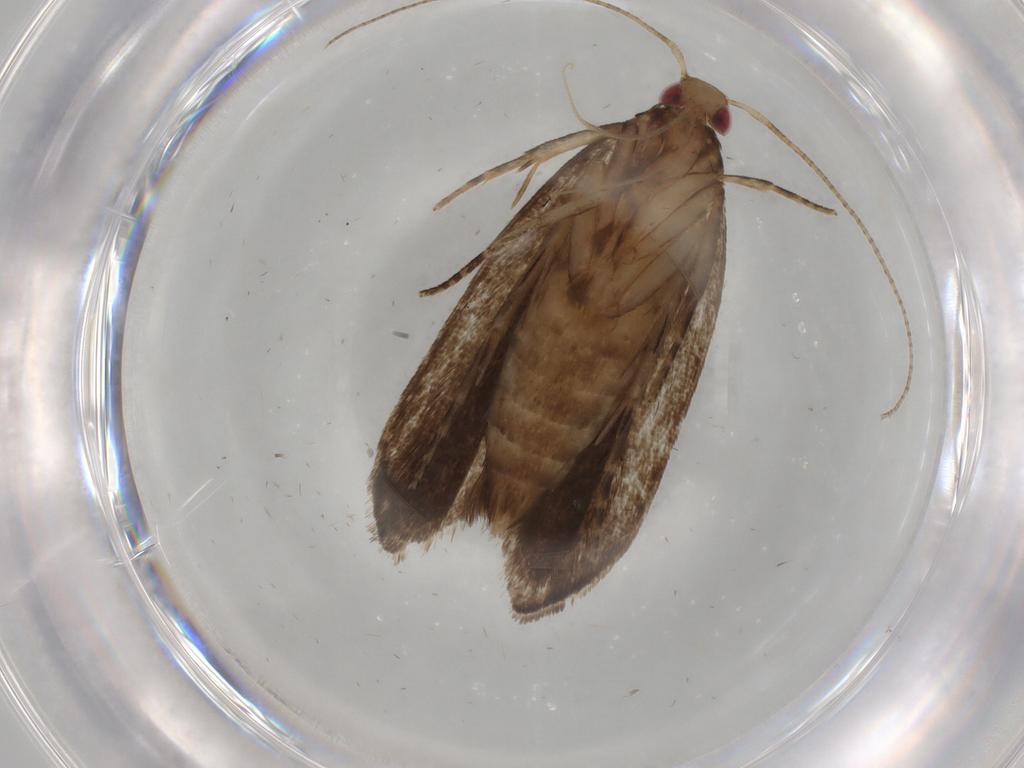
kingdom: Animalia
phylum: Arthropoda
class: Insecta
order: Lepidoptera
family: Gelechiidae
